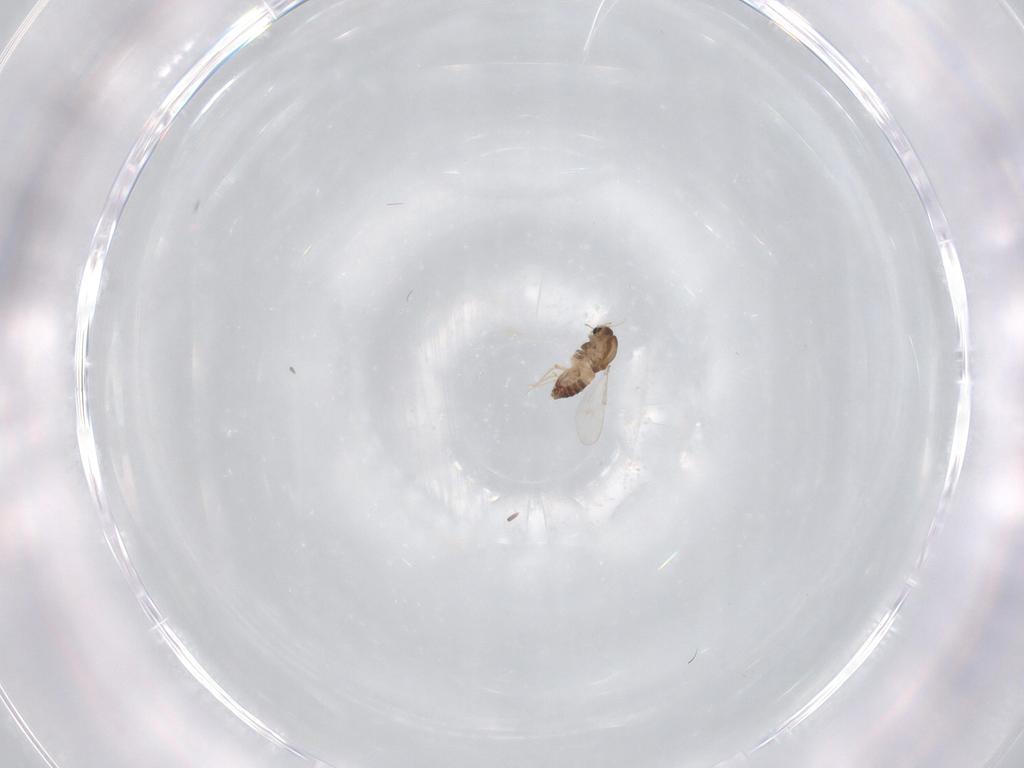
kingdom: Animalia
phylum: Arthropoda
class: Insecta
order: Diptera
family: Chironomidae
